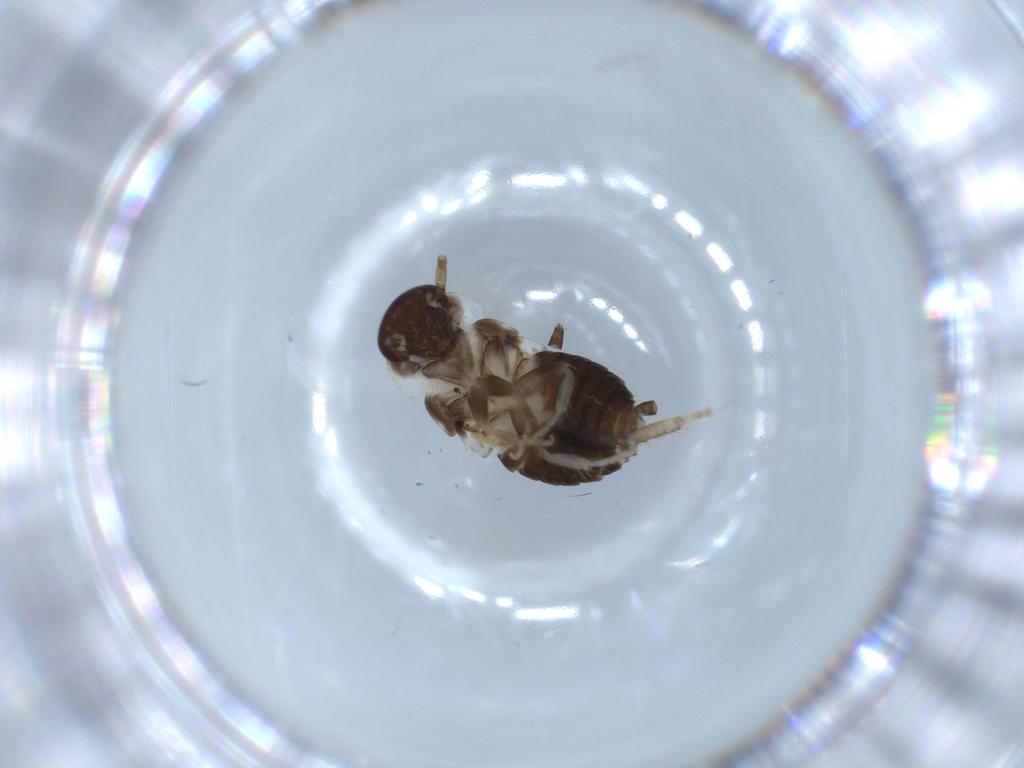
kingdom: Animalia
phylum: Arthropoda
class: Insecta
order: Blattodea
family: Ectobiidae
